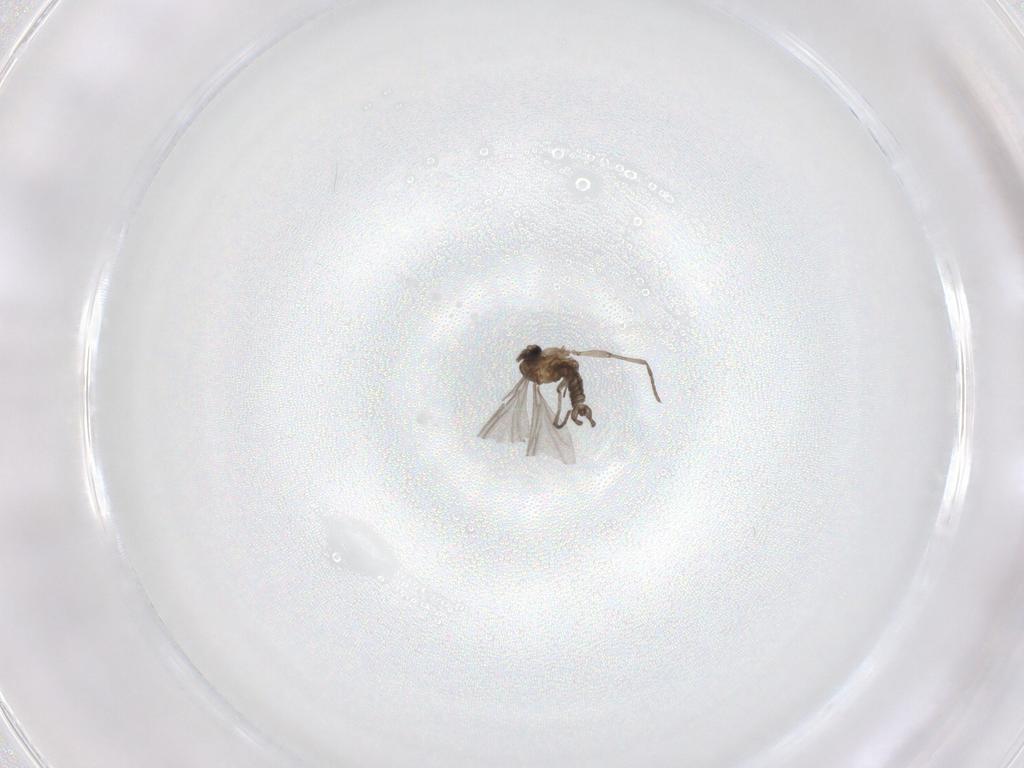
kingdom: Animalia
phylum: Arthropoda
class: Insecta
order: Diptera
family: Sciaridae
